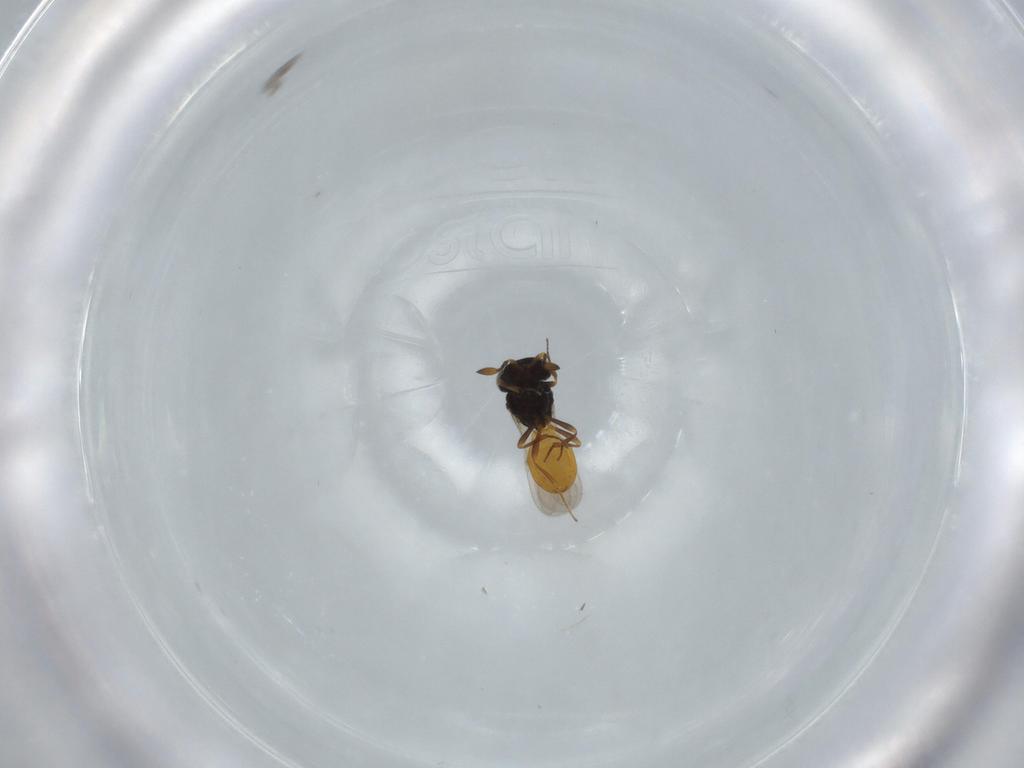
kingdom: Animalia
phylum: Arthropoda
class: Insecta
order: Hymenoptera
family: Scelionidae
